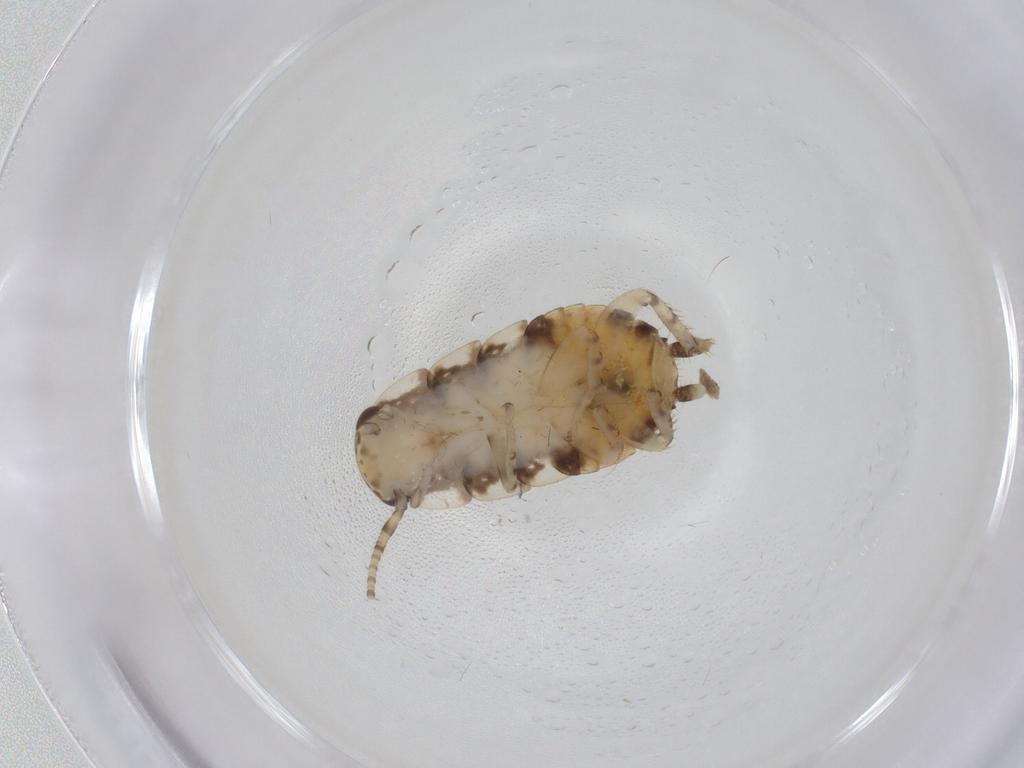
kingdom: Animalia
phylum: Arthropoda
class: Insecta
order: Blattodea
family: Ectobiidae
